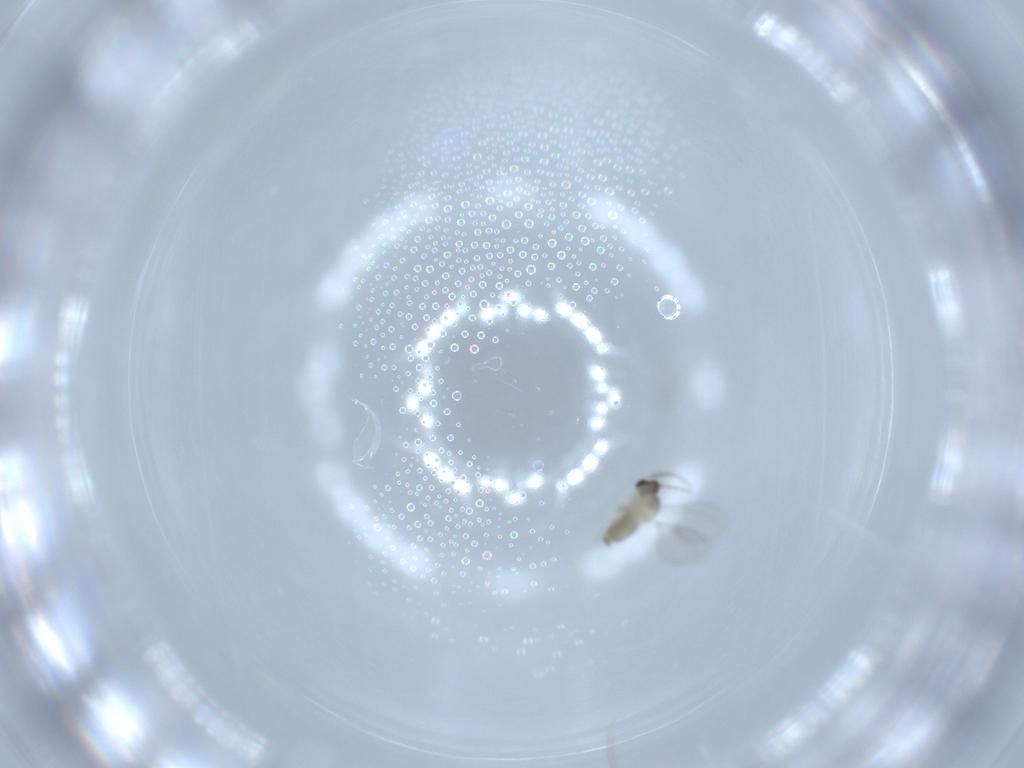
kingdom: Animalia
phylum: Arthropoda
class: Insecta
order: Diptera
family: Cecidomyiidae
